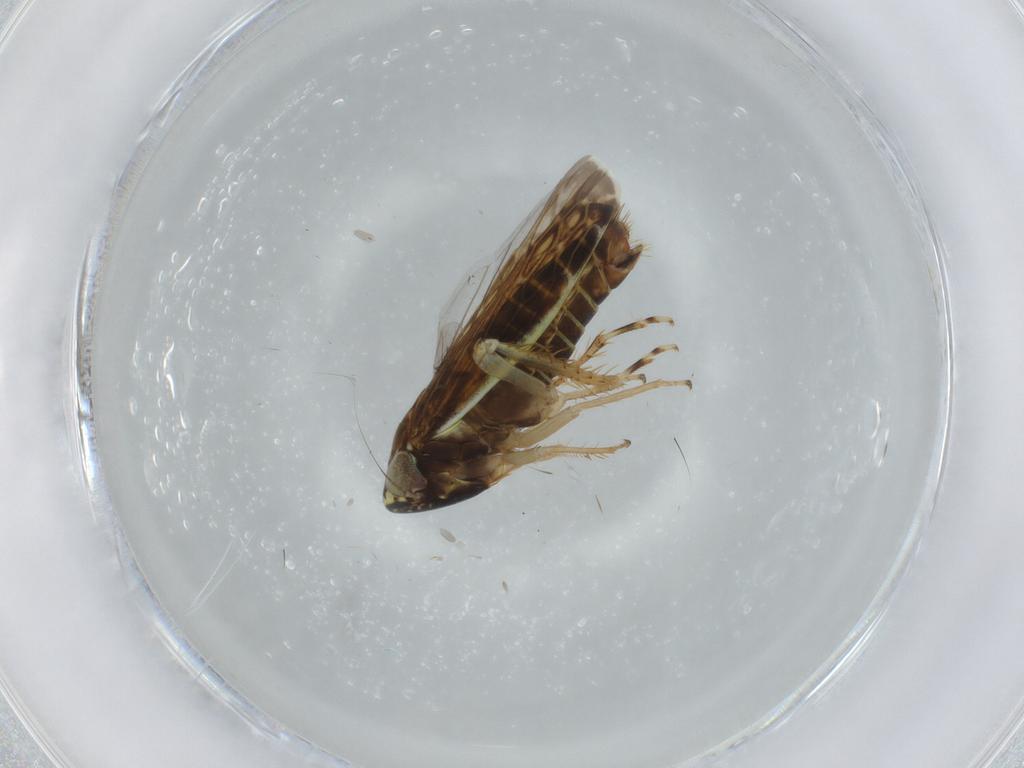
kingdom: Animalia
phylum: Arthropoda
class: Insecta
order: Hemiptera
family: Cicadellidae
